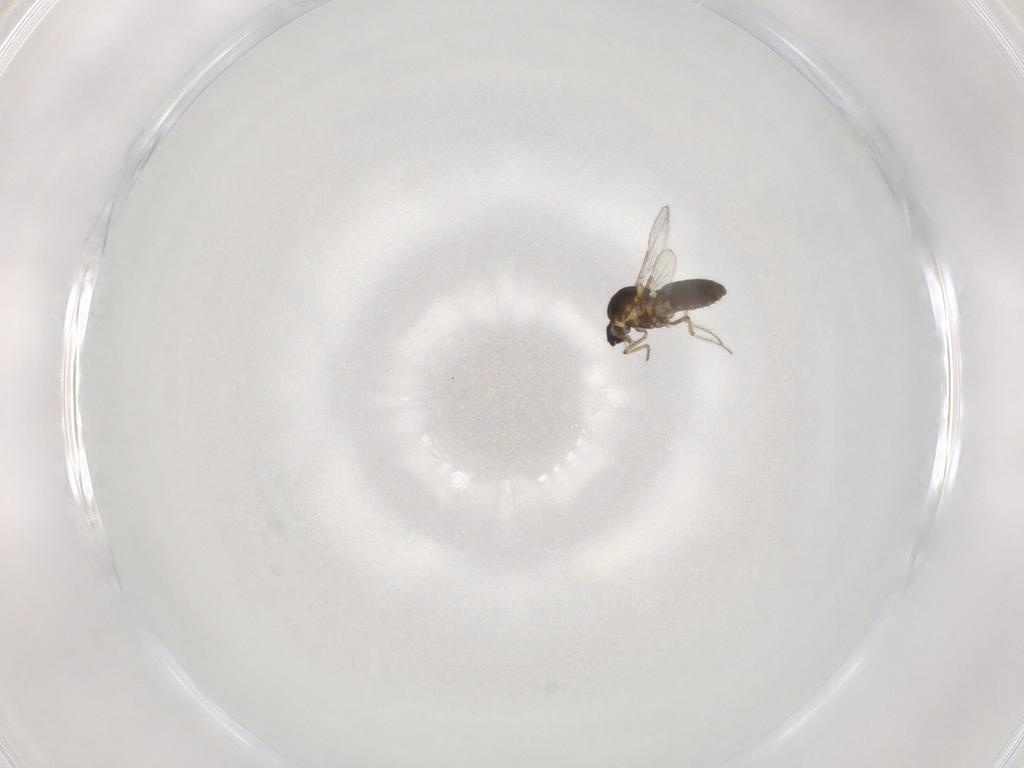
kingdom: Animalia
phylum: Arthropoda
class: Insecta
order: Diptera
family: Ceratopogonidae
